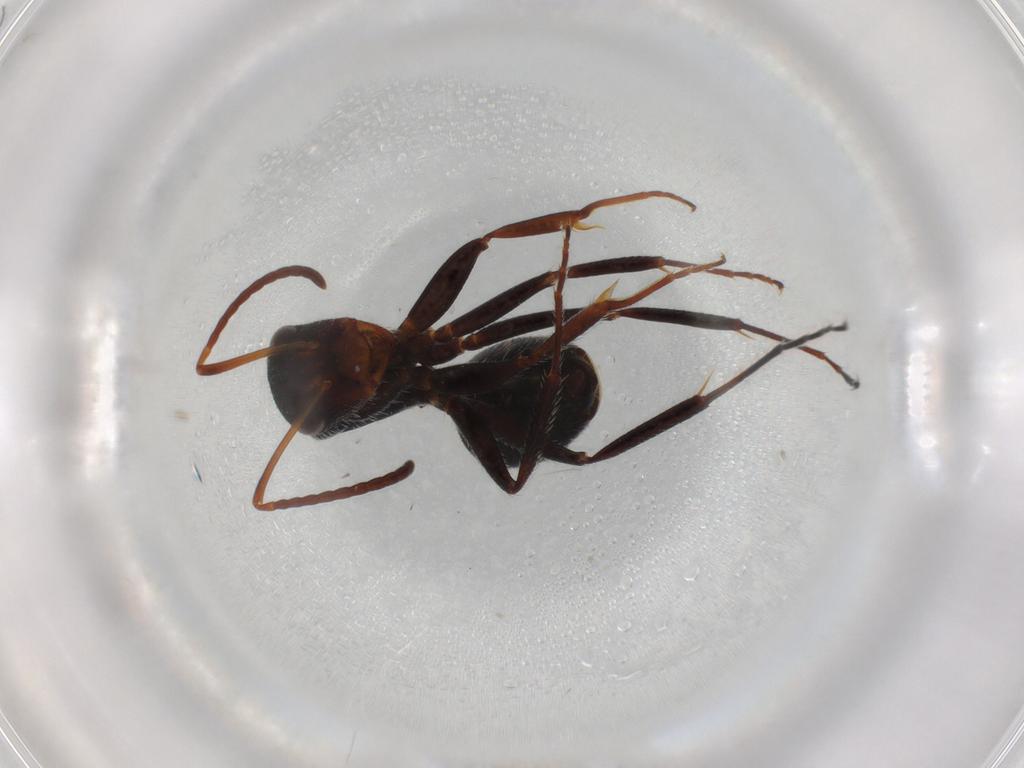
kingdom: Animalia
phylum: Arthropoda
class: Insecta
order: Hymenoptera
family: Formicidae
